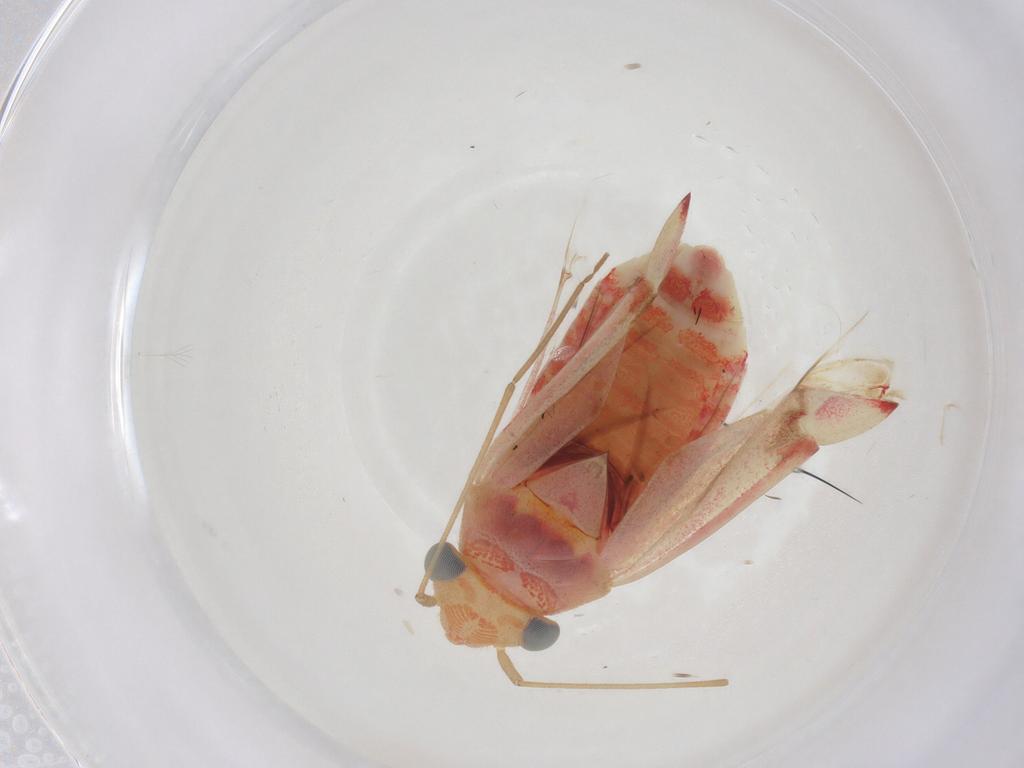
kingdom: Animalia
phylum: Arthropoda
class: Insecta
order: Hemiptera
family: Miridae
